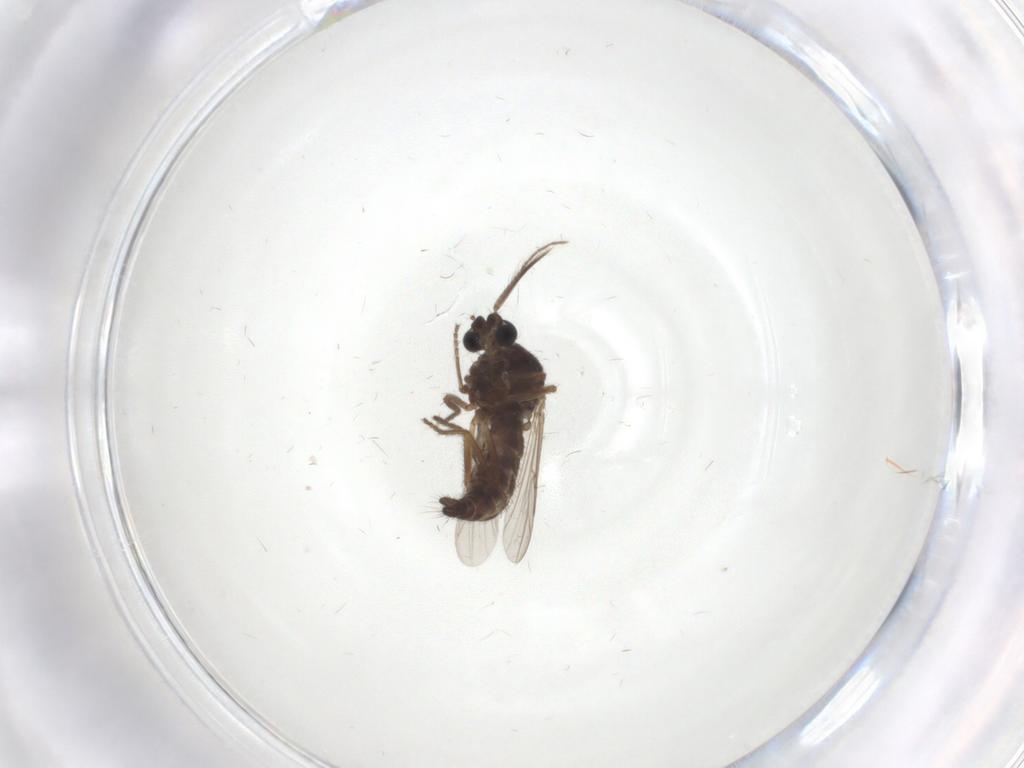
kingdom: Animalia
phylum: Arthropoda
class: Insecta
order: Diptera
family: Ceratopogonidae
